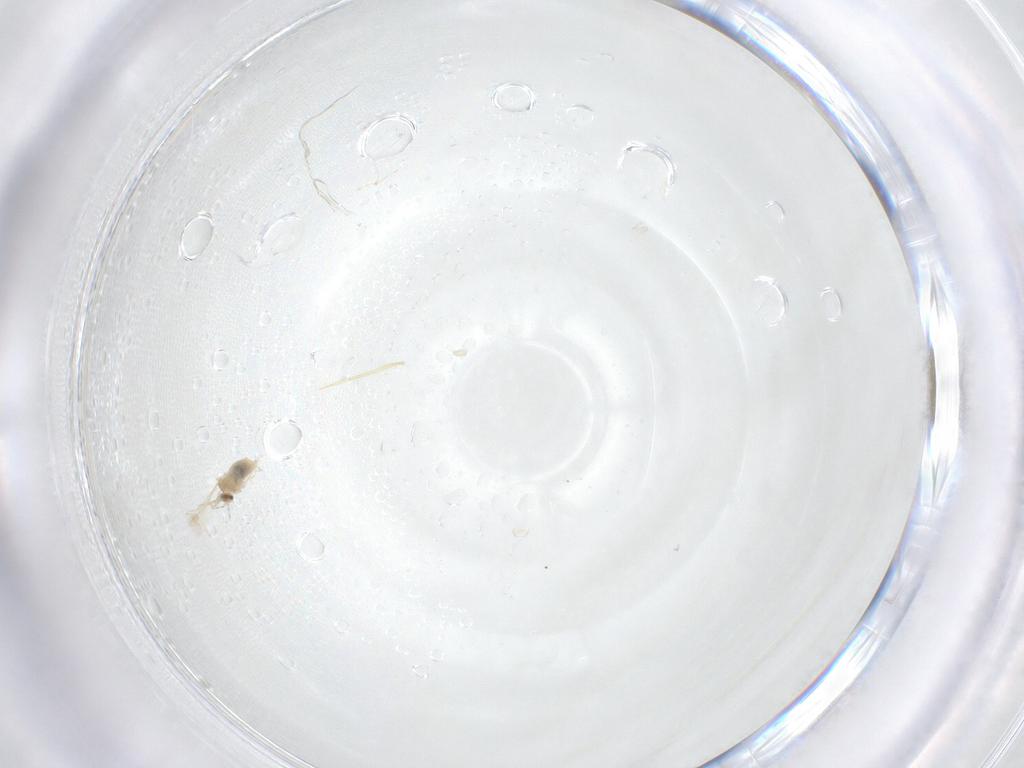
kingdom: Animalia
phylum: Arthropoda
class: Insecta
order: Diptera
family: Cecidomyiidae
